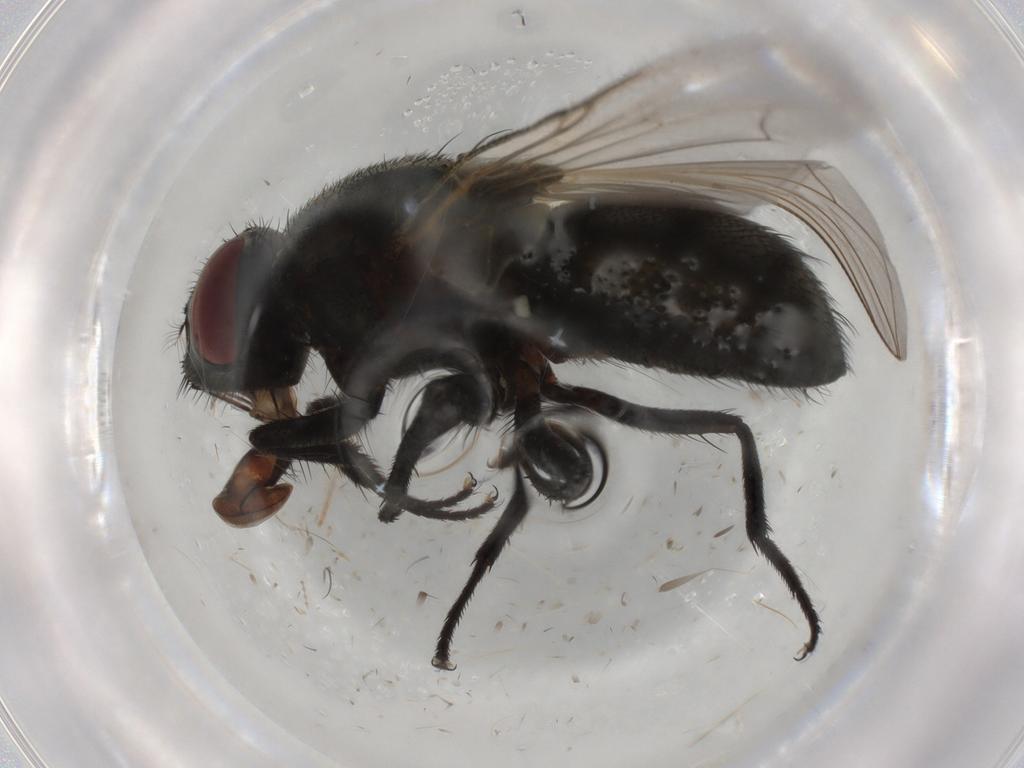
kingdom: Animalia
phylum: Arthropoda
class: Insecta
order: Diptera
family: Muscidae
